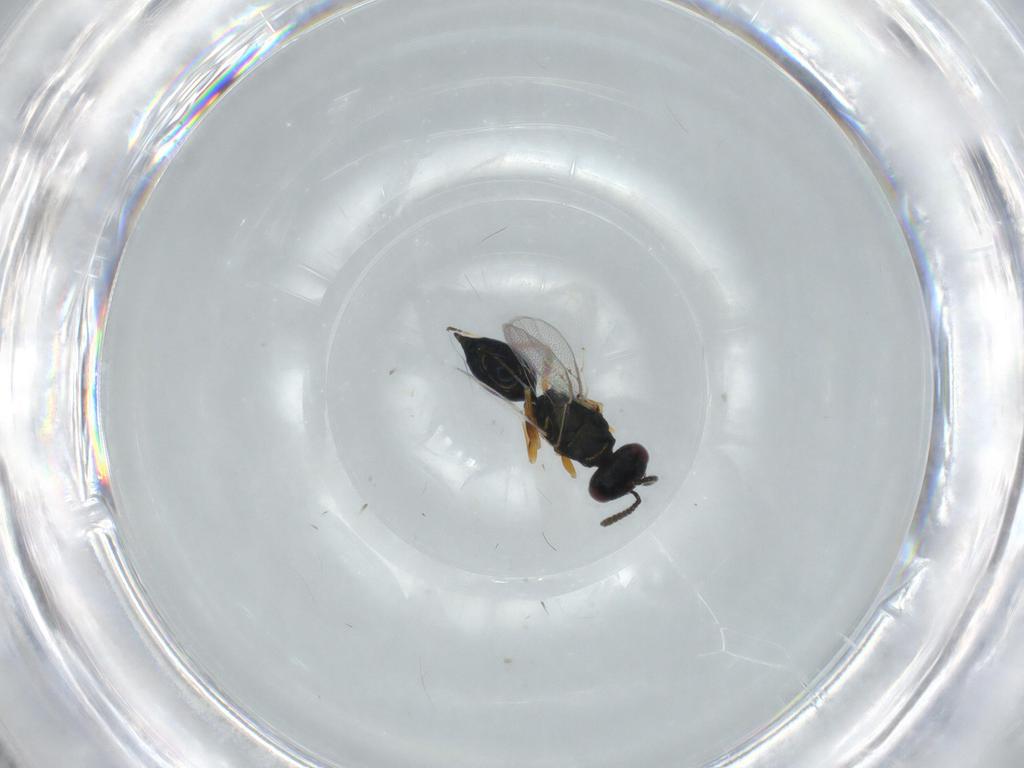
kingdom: Animalia
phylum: Arthropoda
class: Insecta
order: Hymenoptera
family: Pteromalidae
